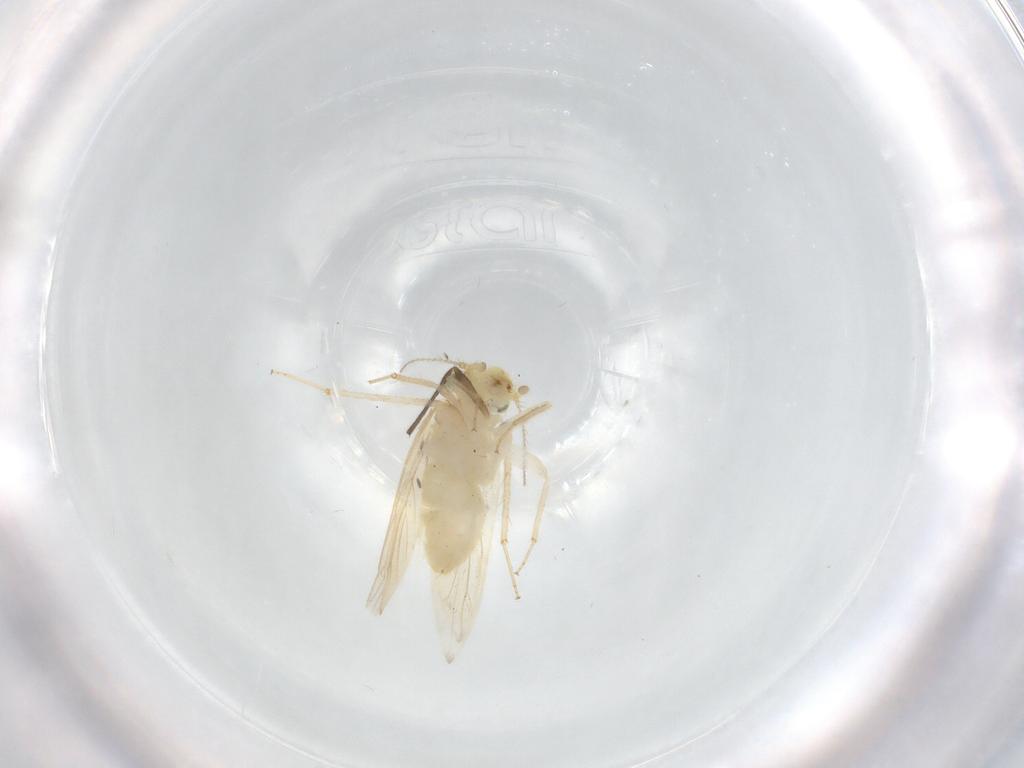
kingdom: Animalia
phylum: Arthropoda
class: Insecta
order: Psocodea
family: Lepidopsocidae
